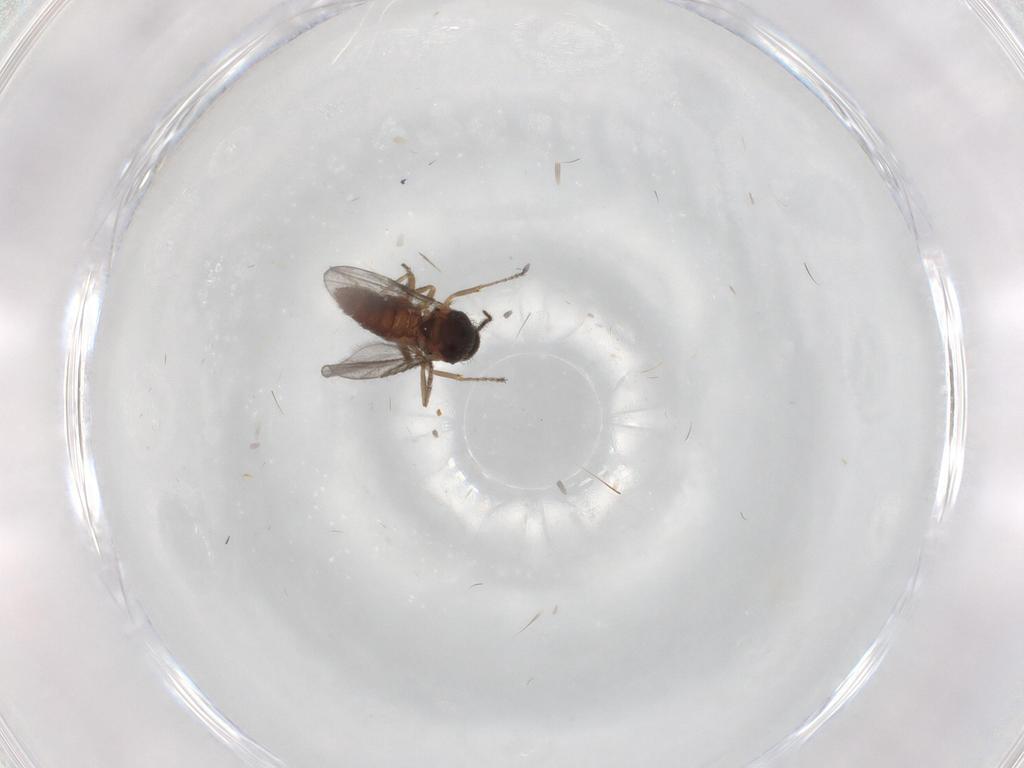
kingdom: Animalia
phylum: Arthropoda
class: Insecta
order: Diptera
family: Ceratopogonidae
